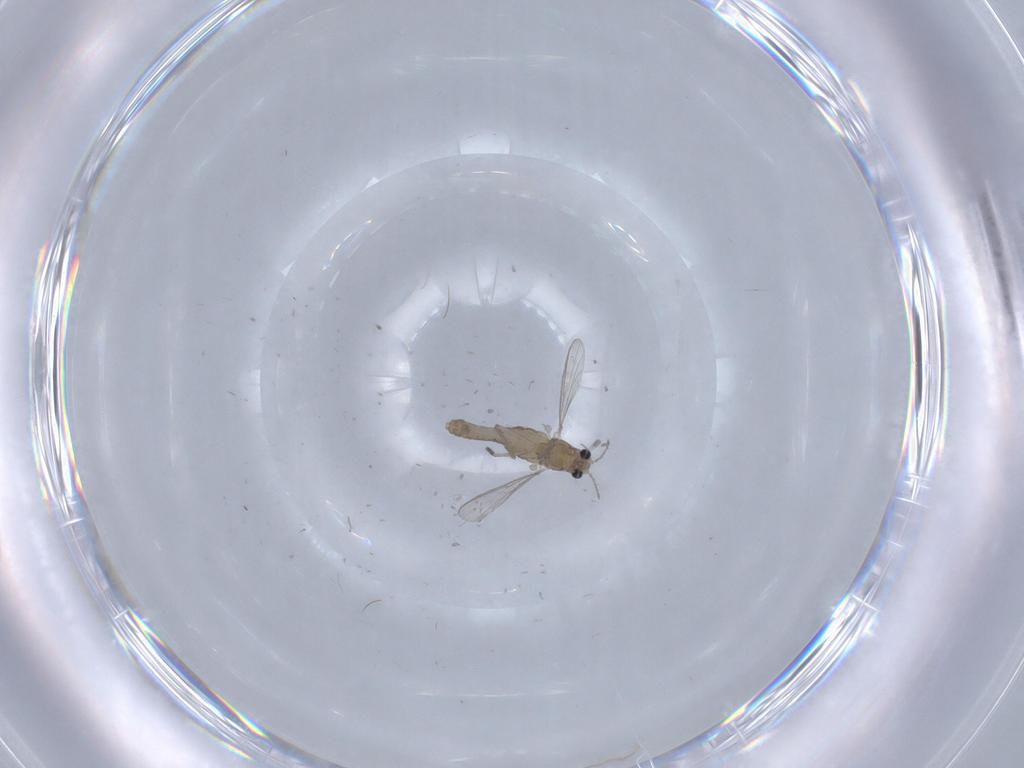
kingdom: Animalia
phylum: Arthropoda
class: Insecta
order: Diptera
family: Chironomidae
